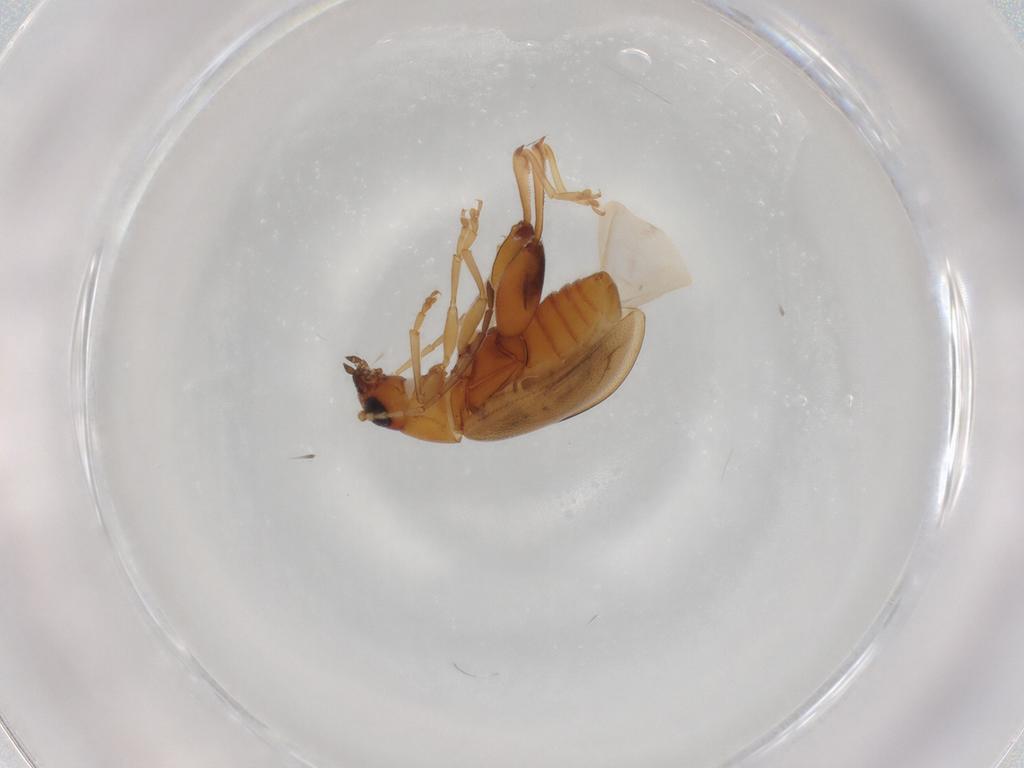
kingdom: Animalia
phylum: Arthropoda
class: Insecta
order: Coleoptera
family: Chrysomelidae
